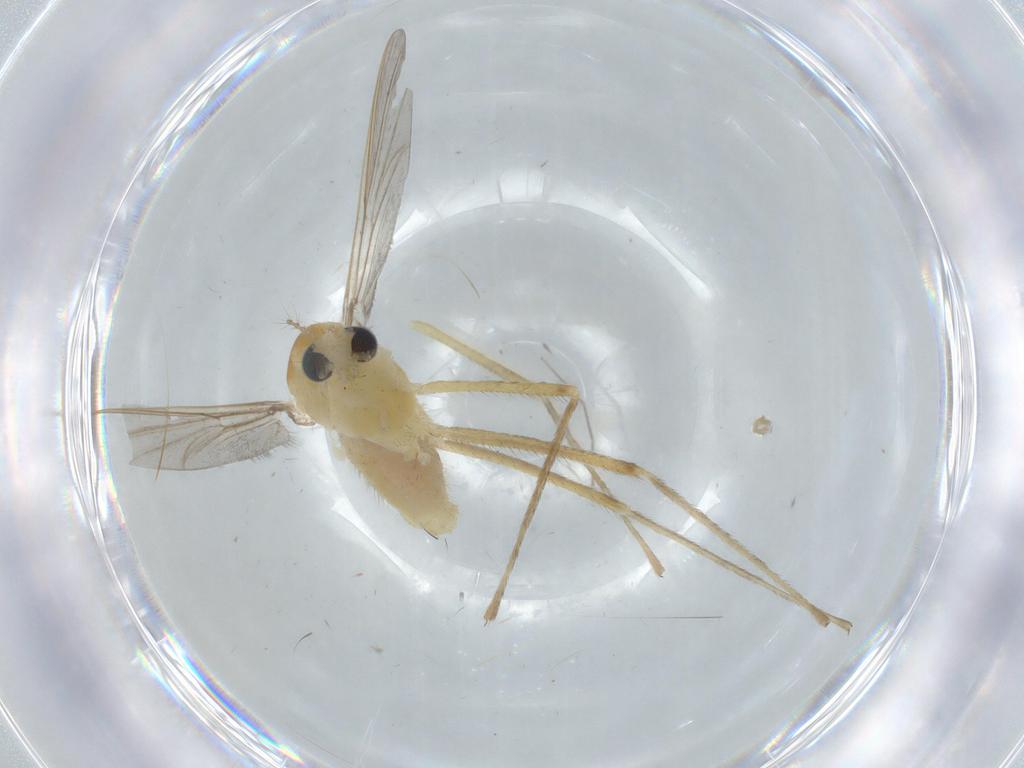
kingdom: Animalia
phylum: Arthropoda
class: Insecta
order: Diptera
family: Chironomidae
